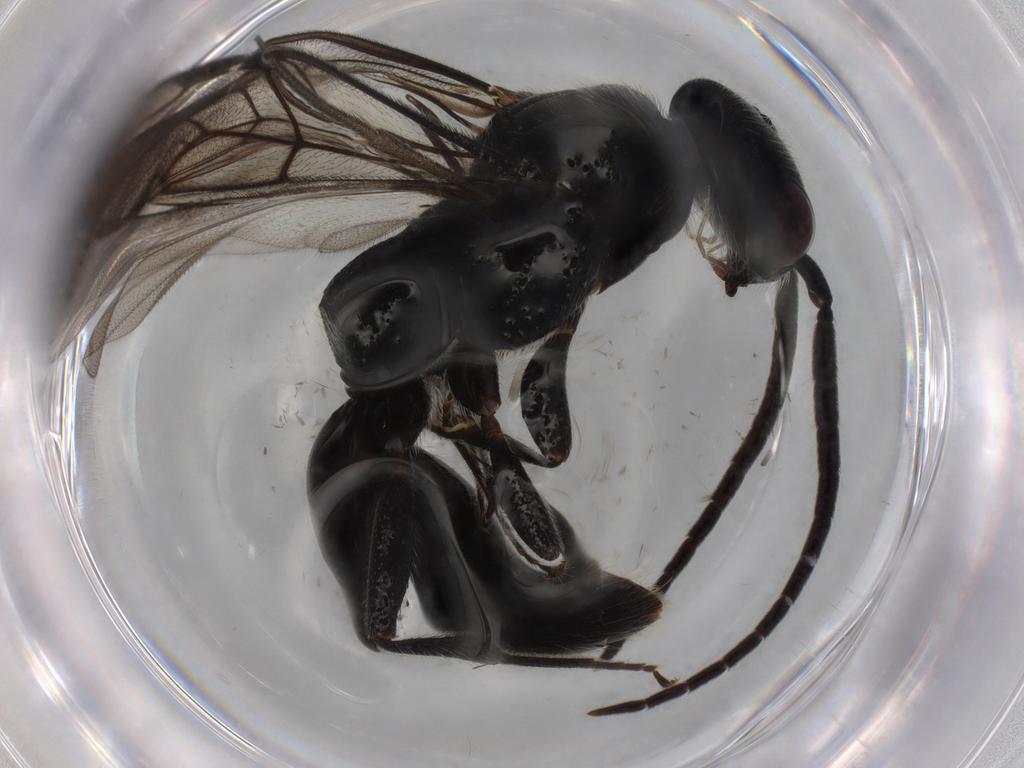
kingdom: Animalia
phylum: Arthropoda
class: Insecta
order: Hymenoptera
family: Bethylidae
